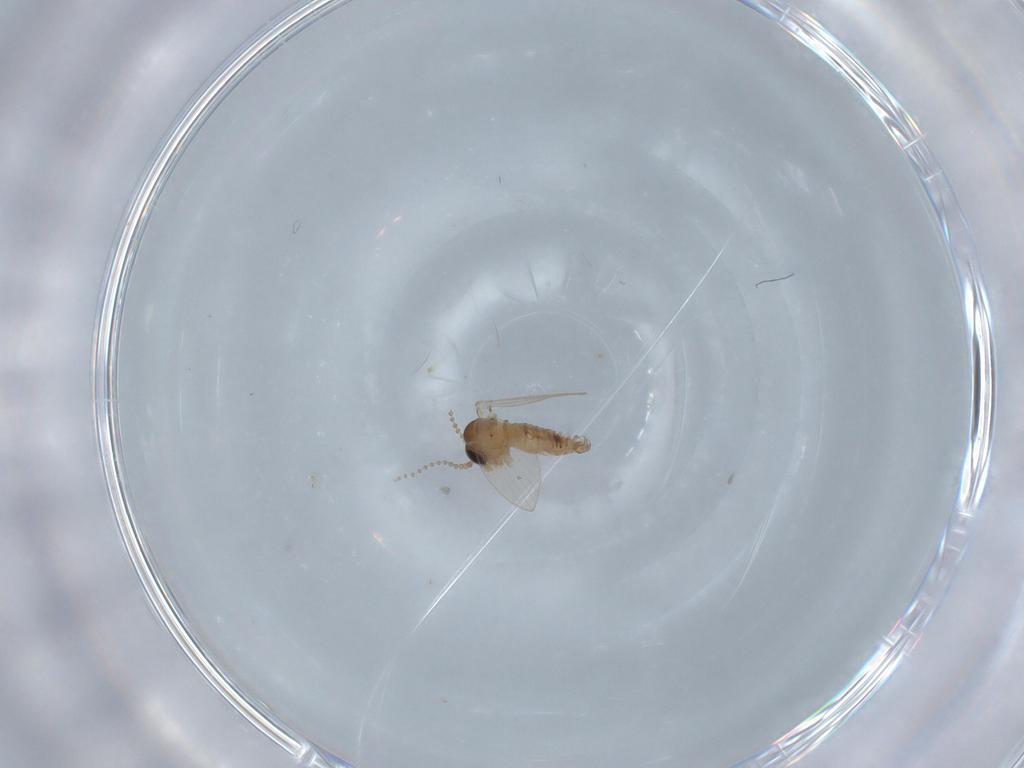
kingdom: Animalia
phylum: Arthropoda
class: Insecta
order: Diptera
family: Psychodidae
